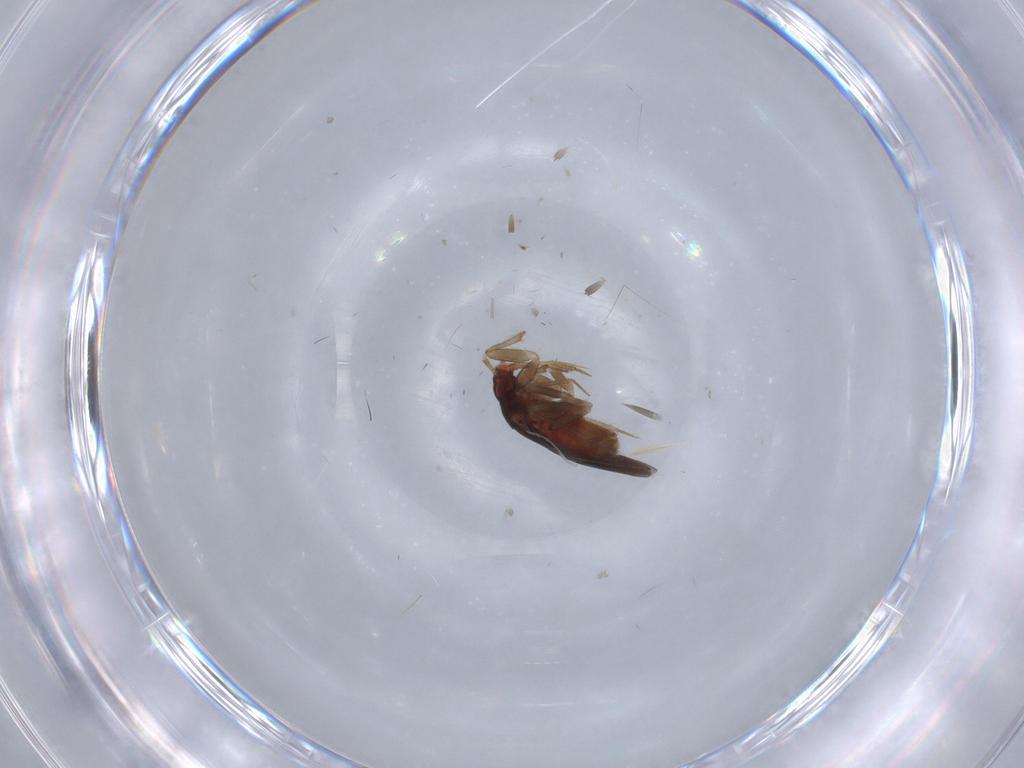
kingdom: Animalia
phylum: Arthropoda
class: Insecta
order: Hemiptera
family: Ceratocombidae
